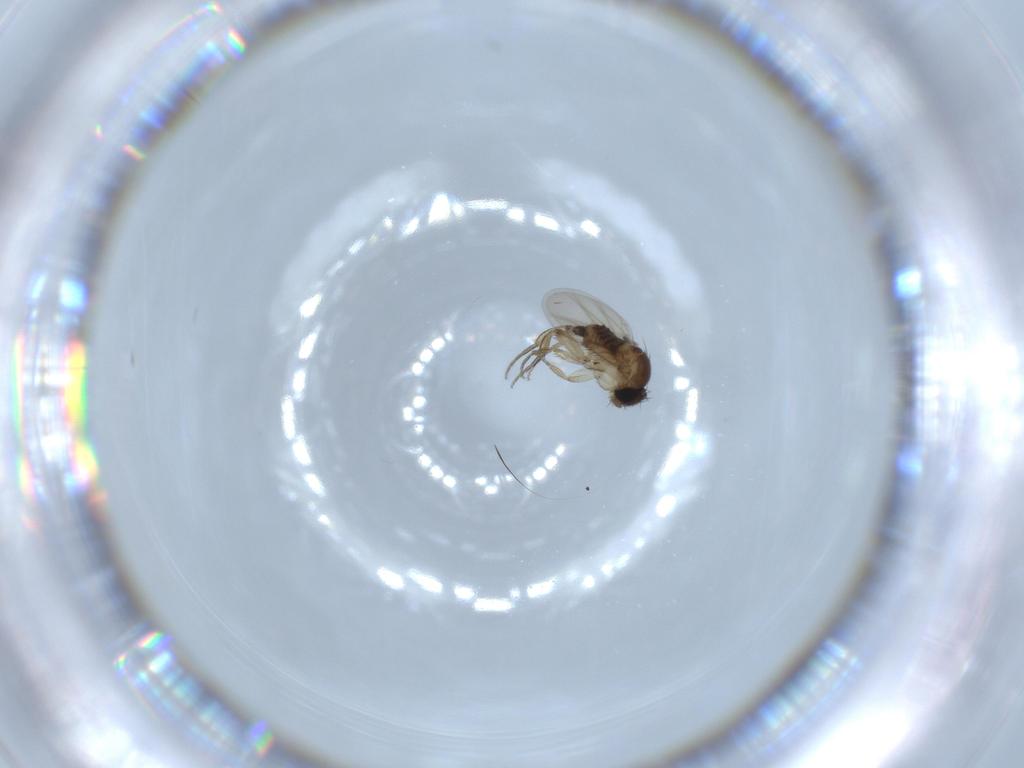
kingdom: Animalia
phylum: Arthropoda
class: Insecta
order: Diptera
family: Phoridae
